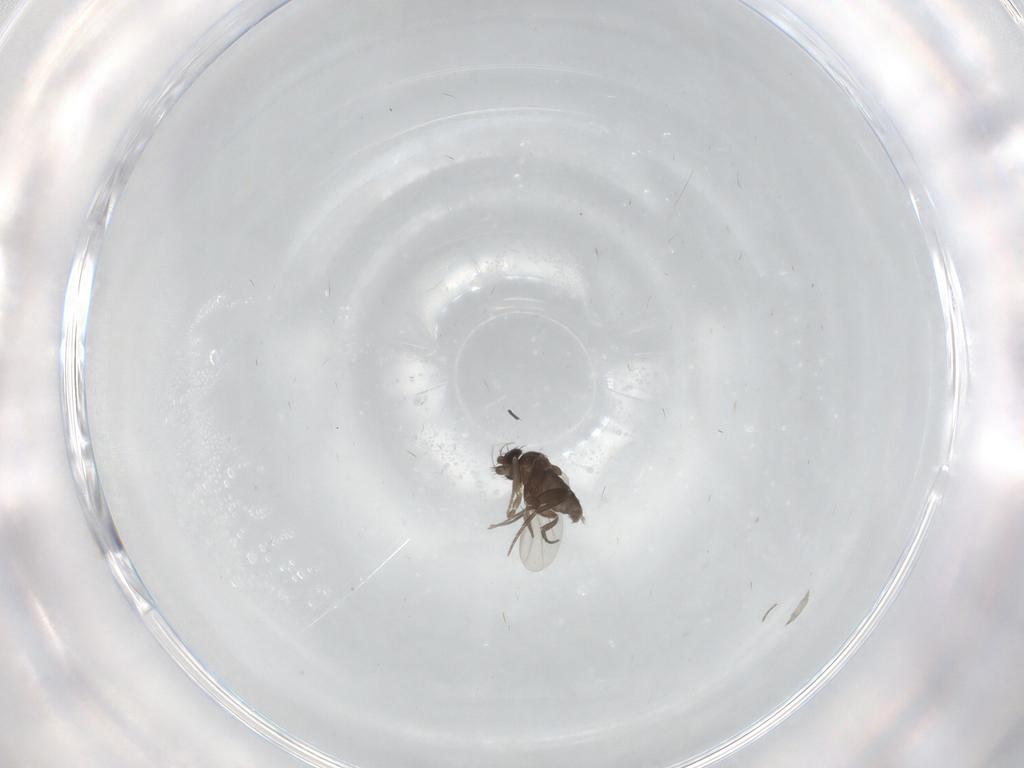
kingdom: Animalia
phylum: Arthropoda
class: Insecta
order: Diptera
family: Phoridae
